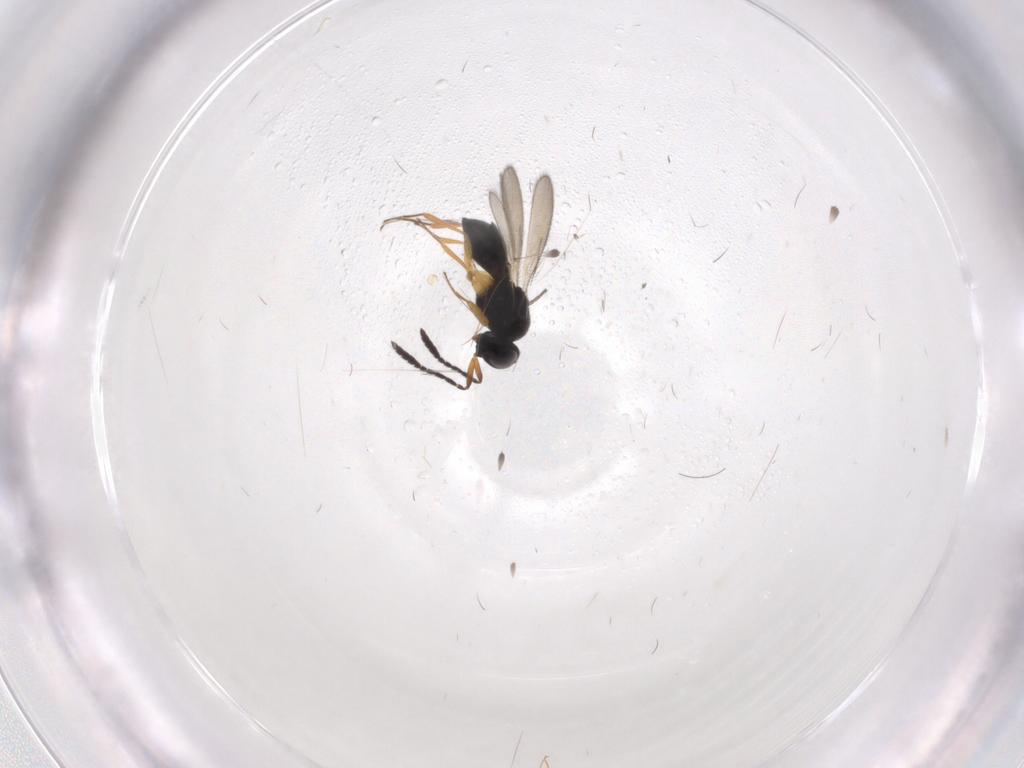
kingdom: Animalia
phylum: Arthropoda
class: Insecta
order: Hymenoptera
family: Scelionidae
